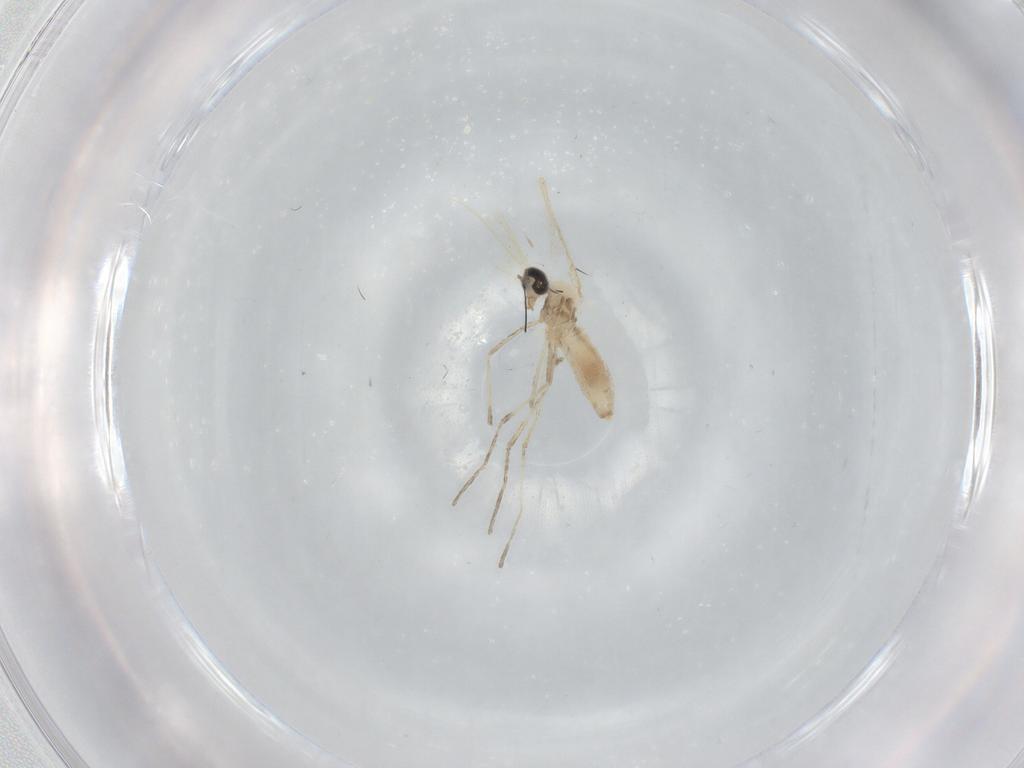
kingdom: Animalia
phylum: Arthropoda
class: Insecta
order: Diptera
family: Cecidomyiidae
